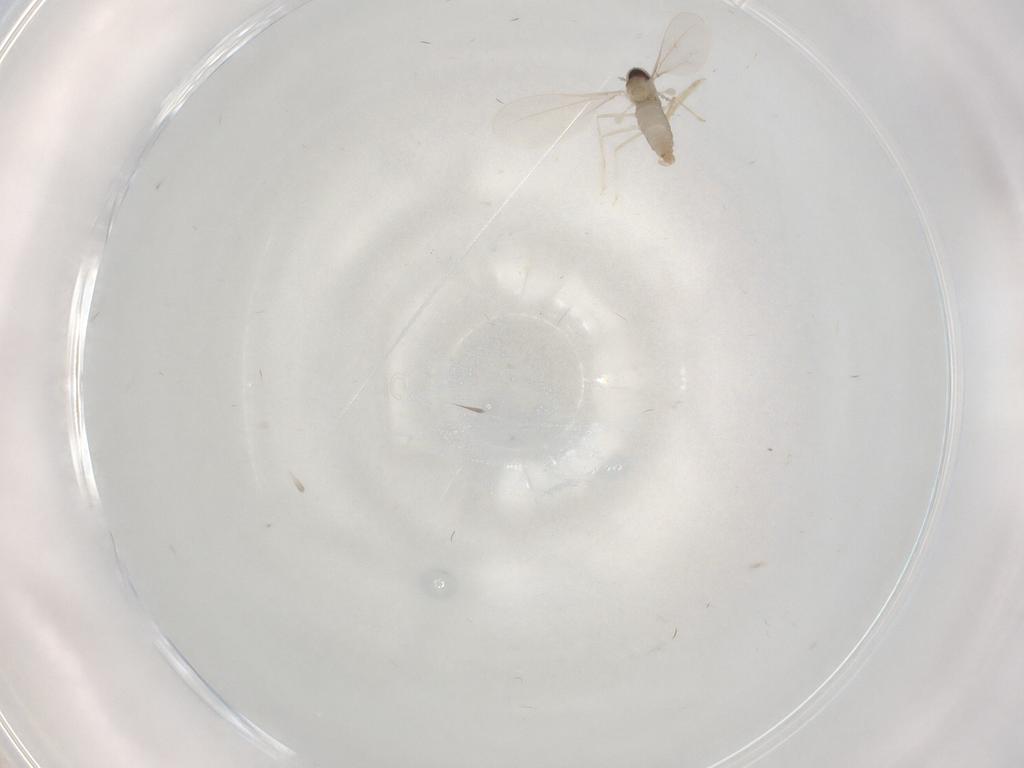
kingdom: Animalia
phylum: Arthropoda
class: Insecta
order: Diptera
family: Cecidomyiidae
